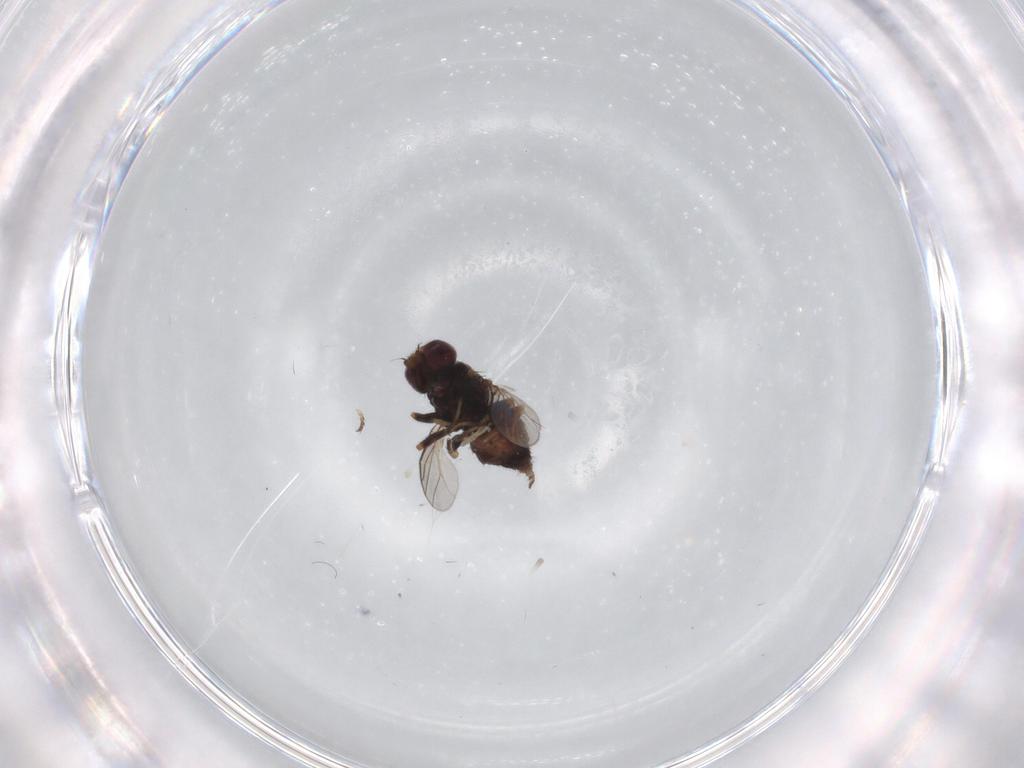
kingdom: Animalia
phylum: Arthropoda
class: Insecta
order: Diptera
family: Chloropidae
